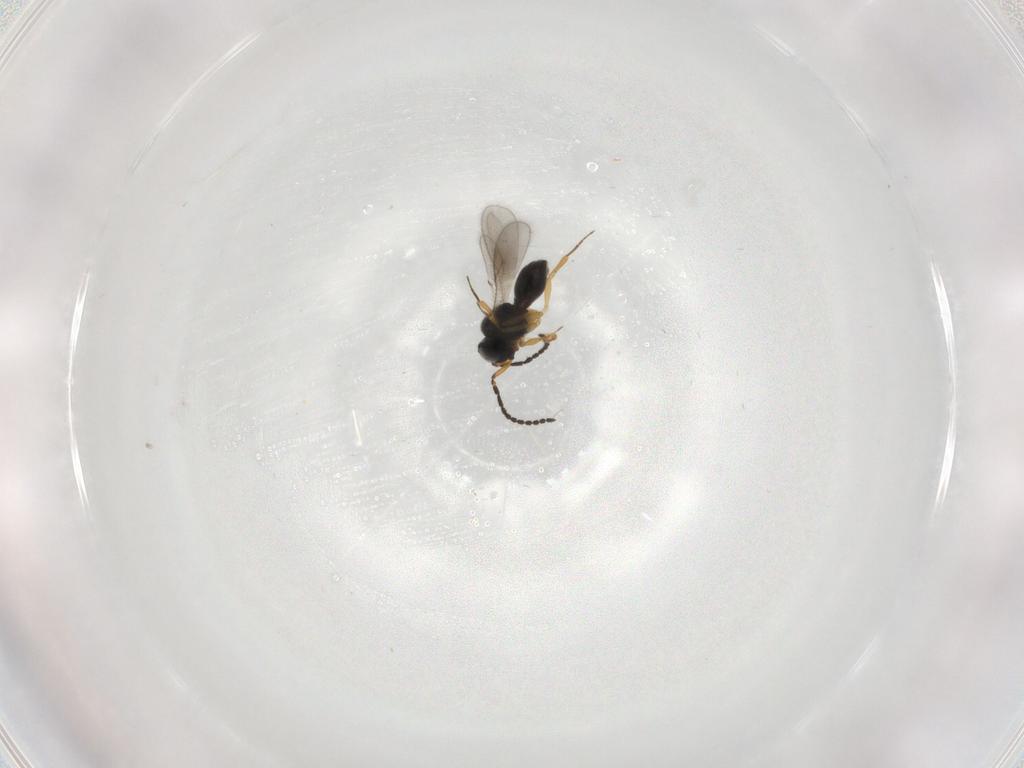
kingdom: Animalia
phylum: Arthropoda
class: Insecta
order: Hymenoptera
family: Scelionidae
